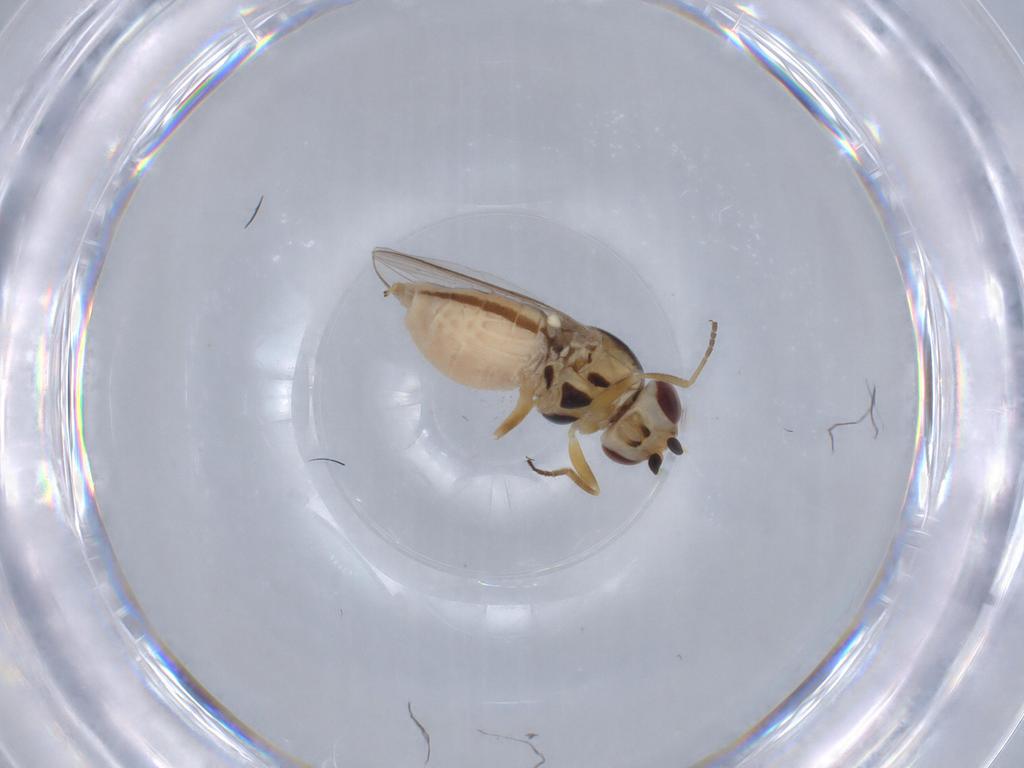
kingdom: Animalia
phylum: Arthropoda
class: Insecta
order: Diptera
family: Chloropidae
